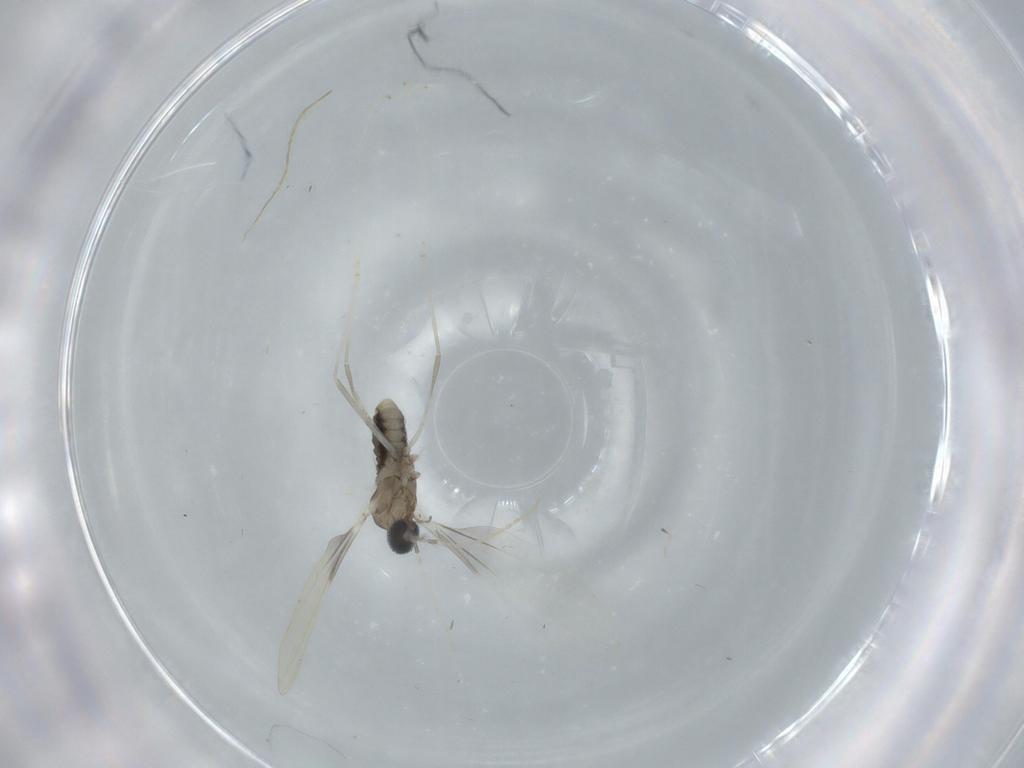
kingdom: Animalia
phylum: Arthropoda
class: Insecta
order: Diptera
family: Cecidomyiidae
